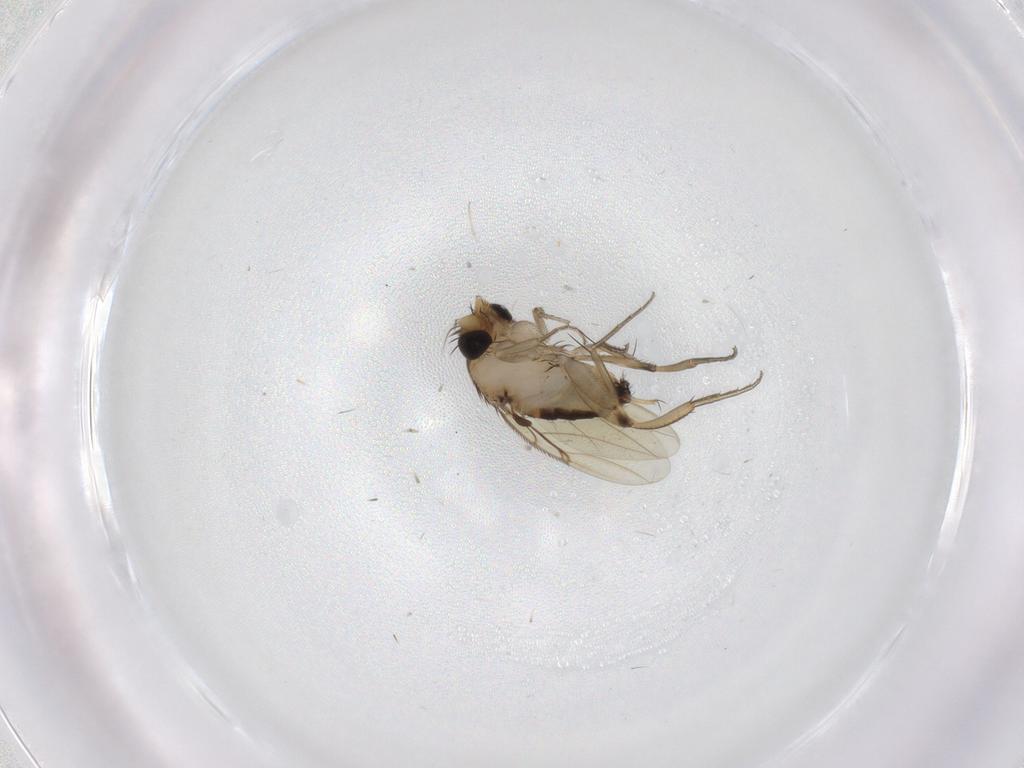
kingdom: Animalia
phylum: Arthropoda
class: Insecta
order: Diptera
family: Phoridae
